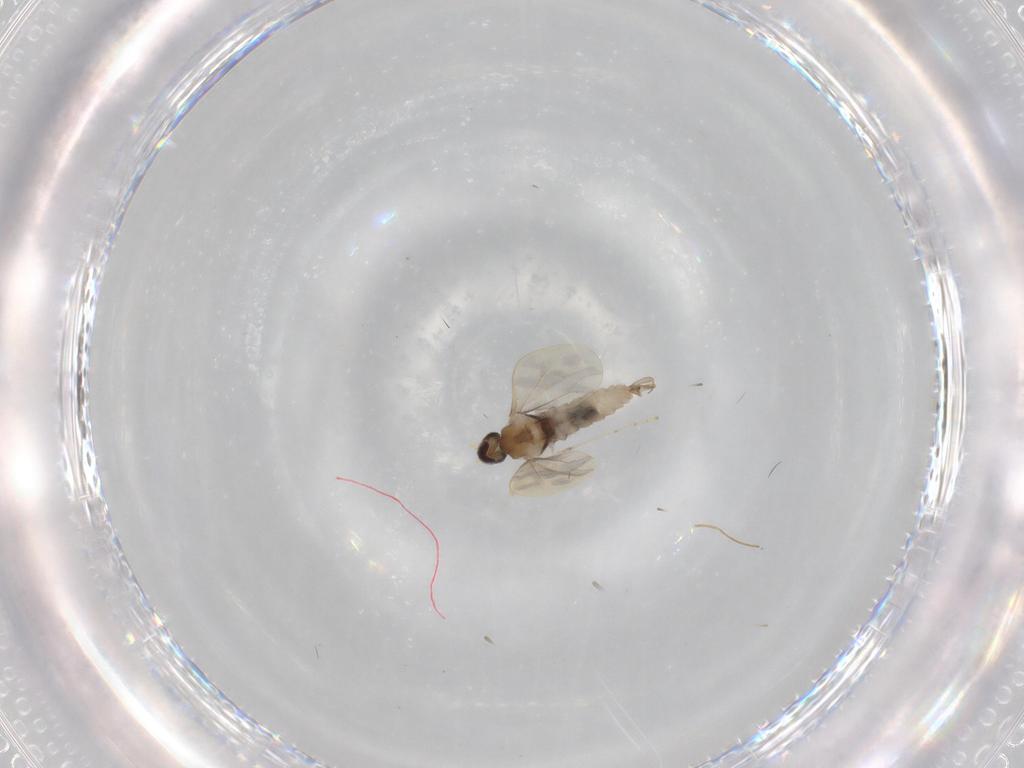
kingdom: Animalia
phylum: Arthropoda
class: Insecta
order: Diptera
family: Cecidomyiidae
